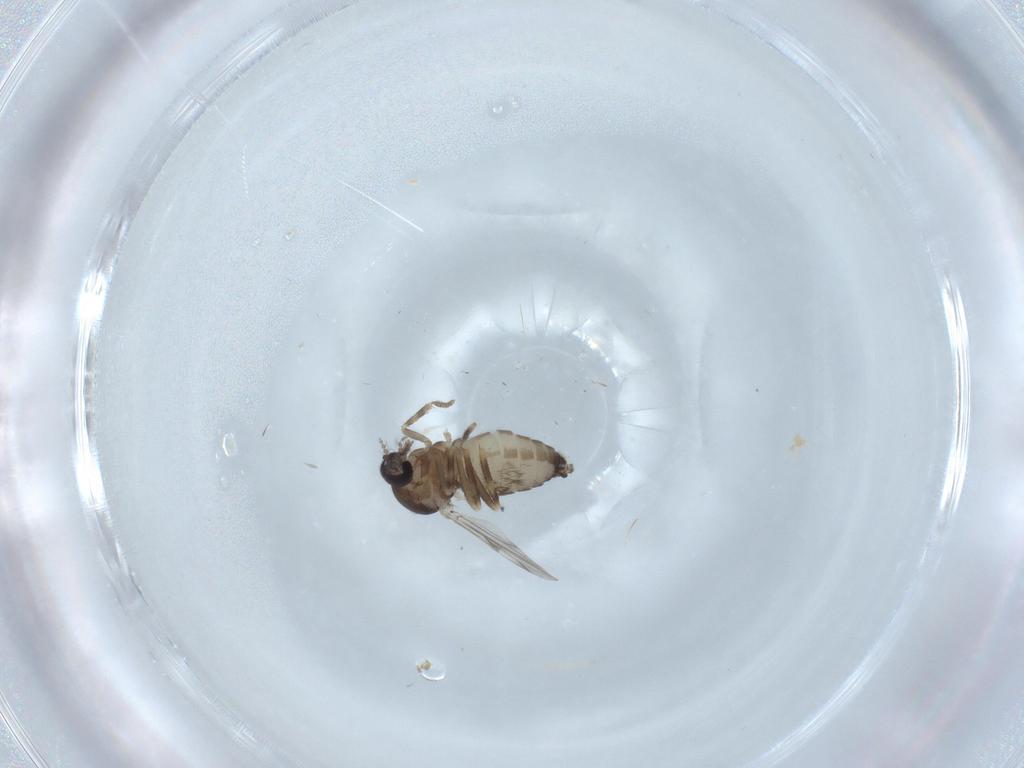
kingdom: Animalia
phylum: Arthropoda
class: Insecta
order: Diptera
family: Ceratopogonidae
